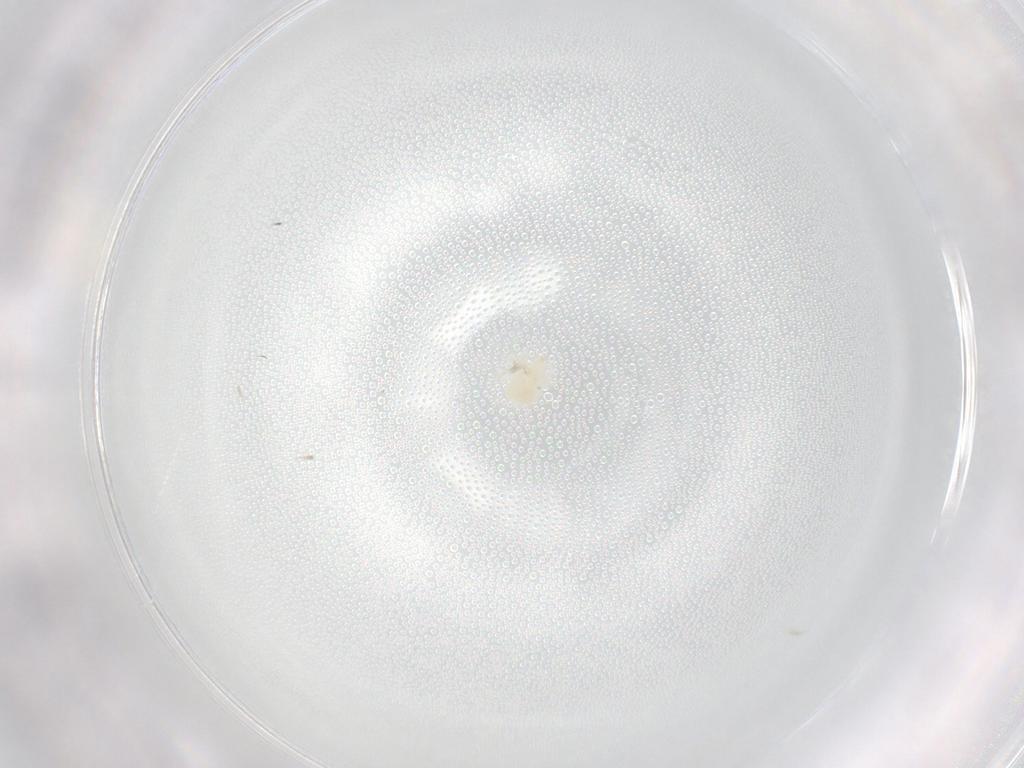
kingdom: Animalia
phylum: Arthropoda
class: Arachnida
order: Trombidiformes
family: Anystidae
